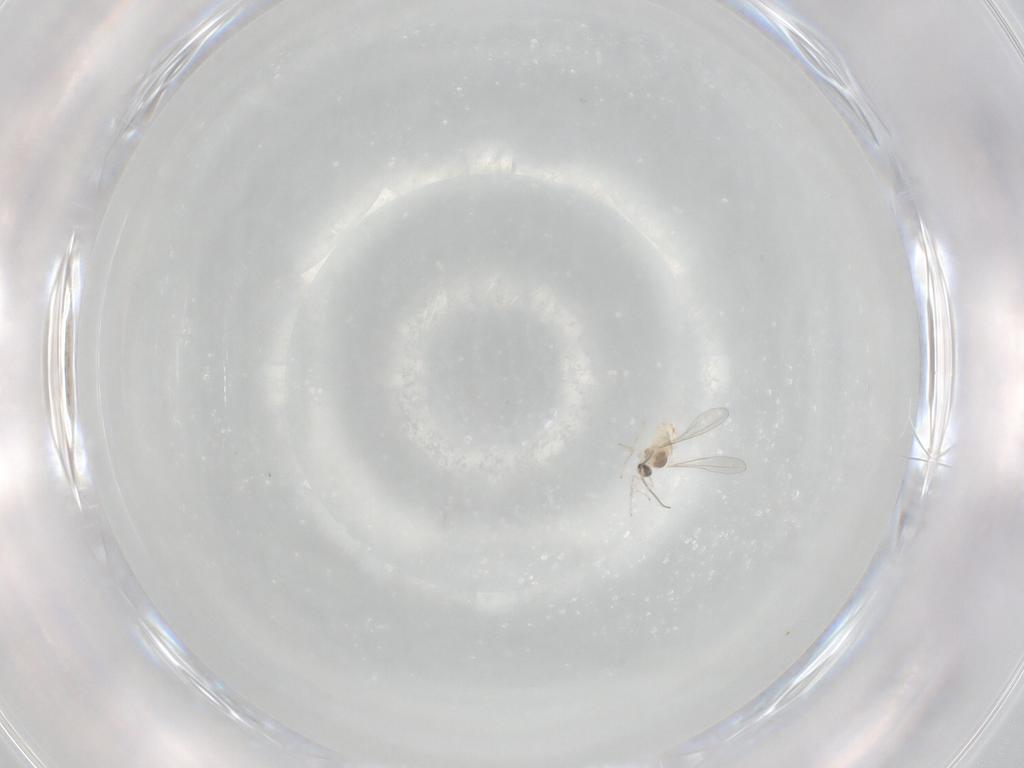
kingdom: Animalia
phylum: Arthropoda
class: Insecta
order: Diptera
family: Cecidomyiidae
